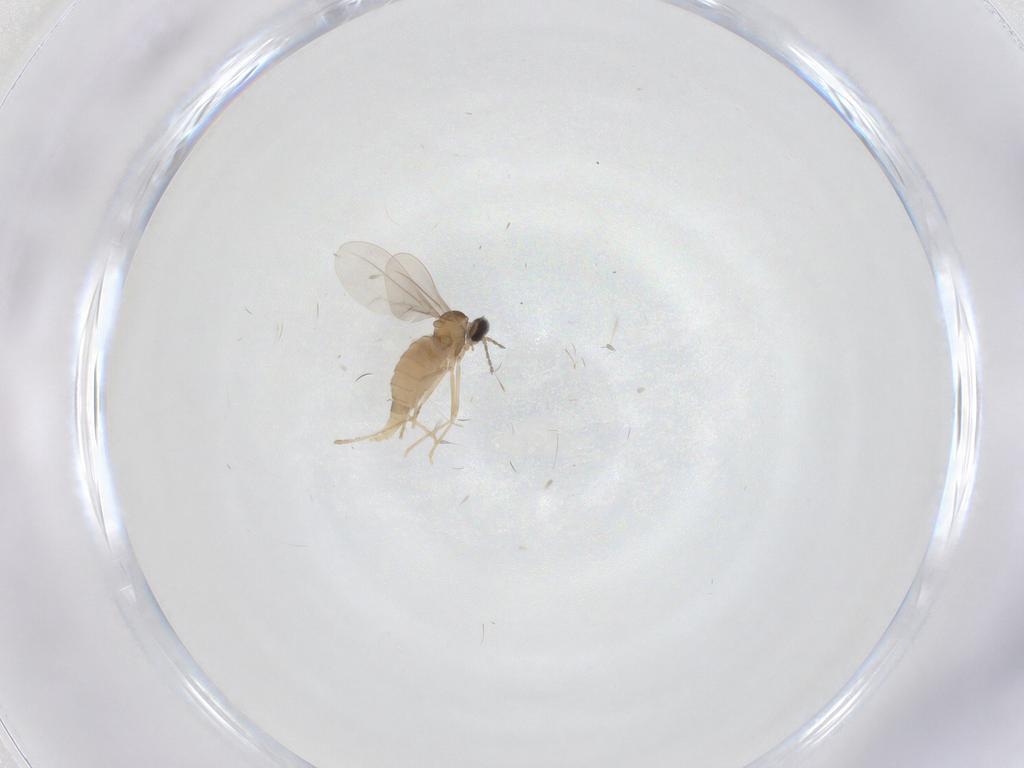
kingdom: Animalia
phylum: Arthropoda
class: Insecta
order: Diptera
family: Cecidomyiidae
